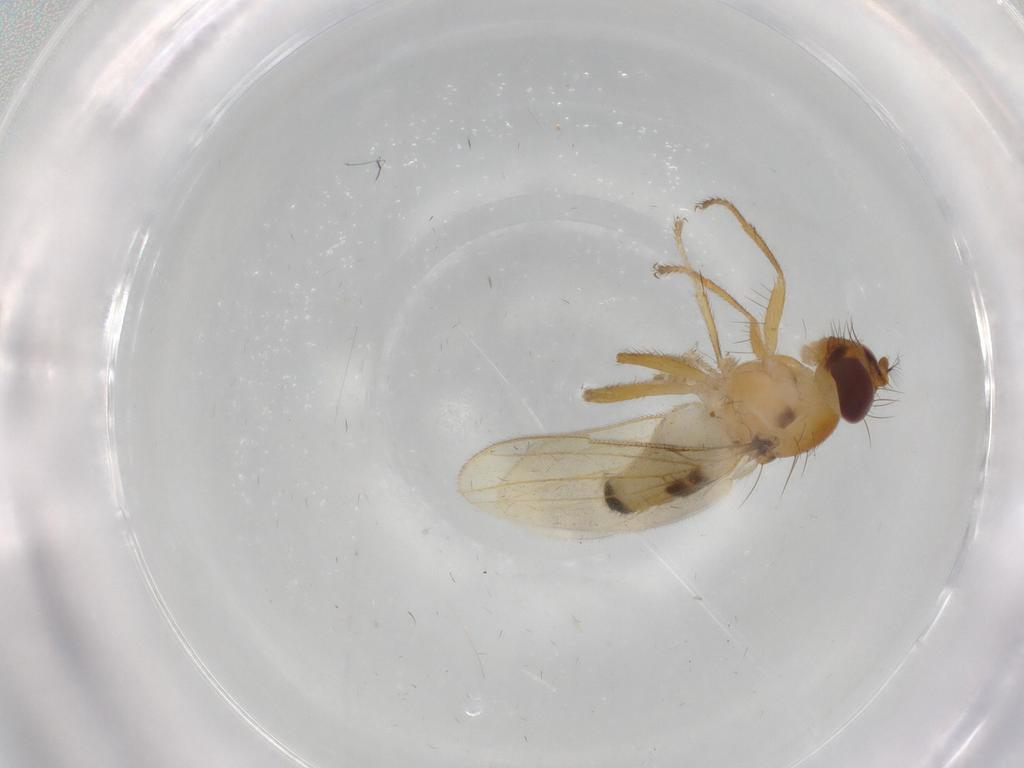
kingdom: Animalia
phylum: Arthropoda
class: Insecta
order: Diptera
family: Periscelididae
